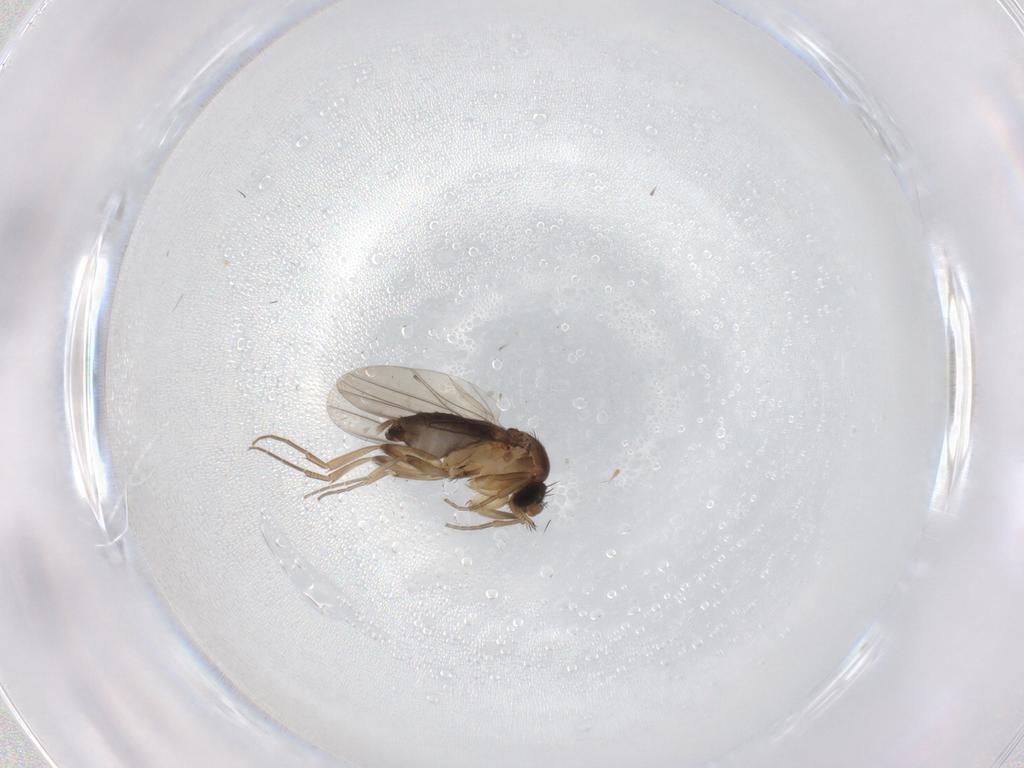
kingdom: Animalia
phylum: Arthropoda
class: Insecta
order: Diptera
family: Phoridae
